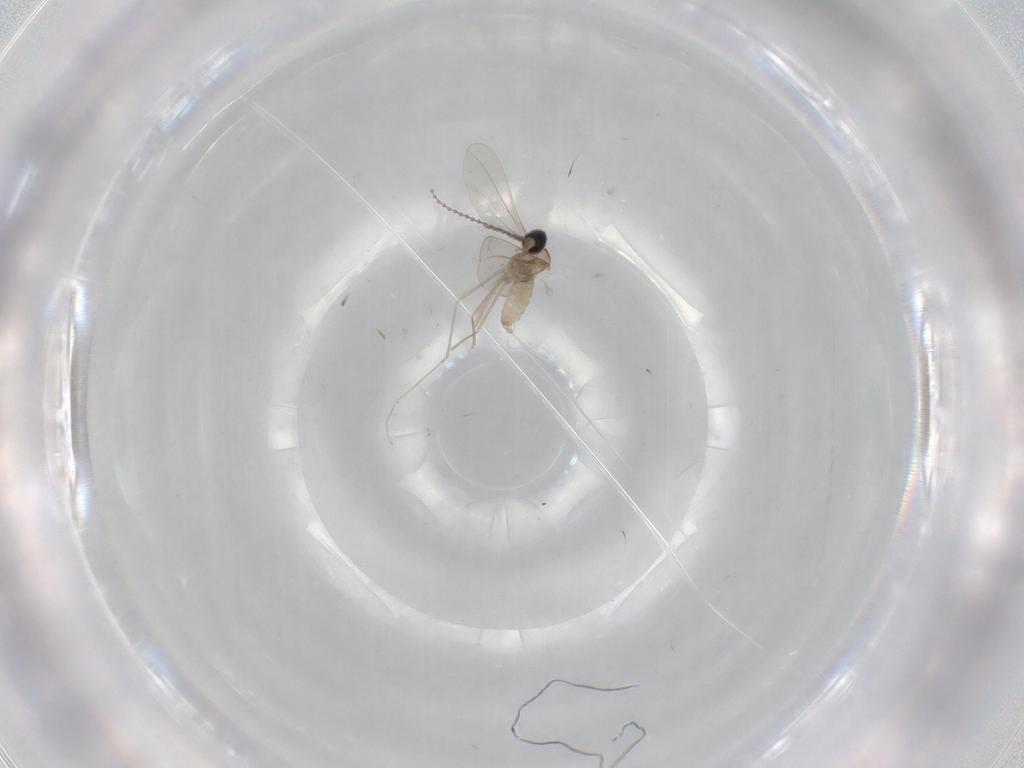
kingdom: Animalia
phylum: Arthropoda
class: Insecta
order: Diptera
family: Cecidomyiidae
